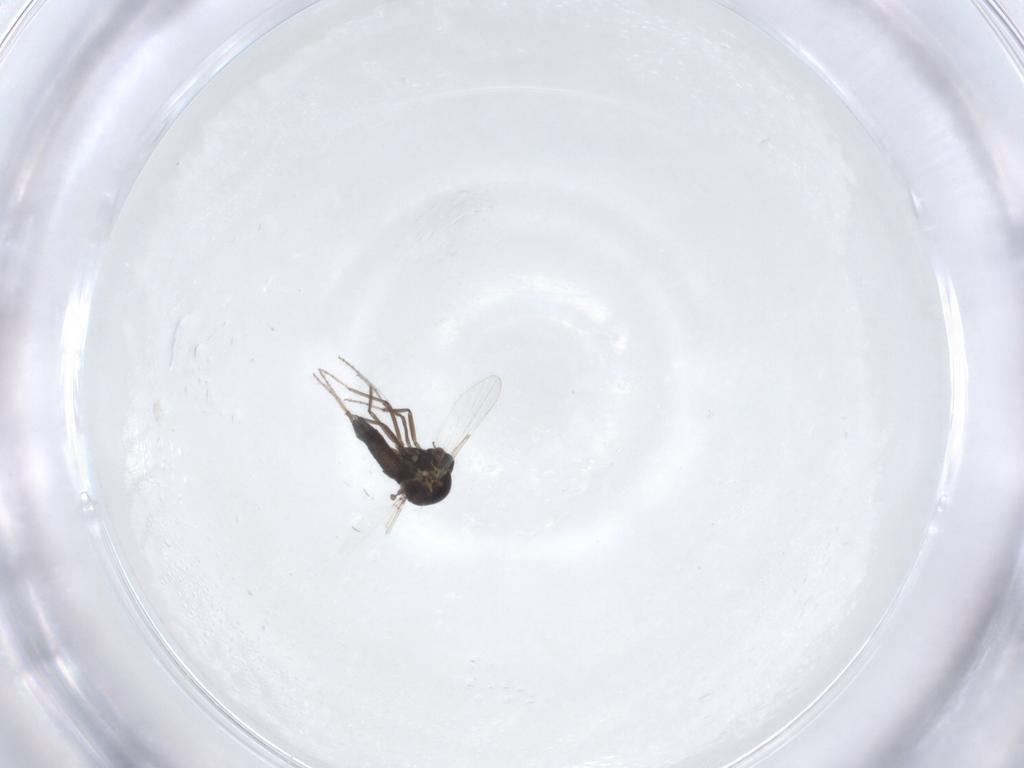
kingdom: Animalia
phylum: Arthropoda
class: Insecta
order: Diptera
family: Ceratopogonidae
